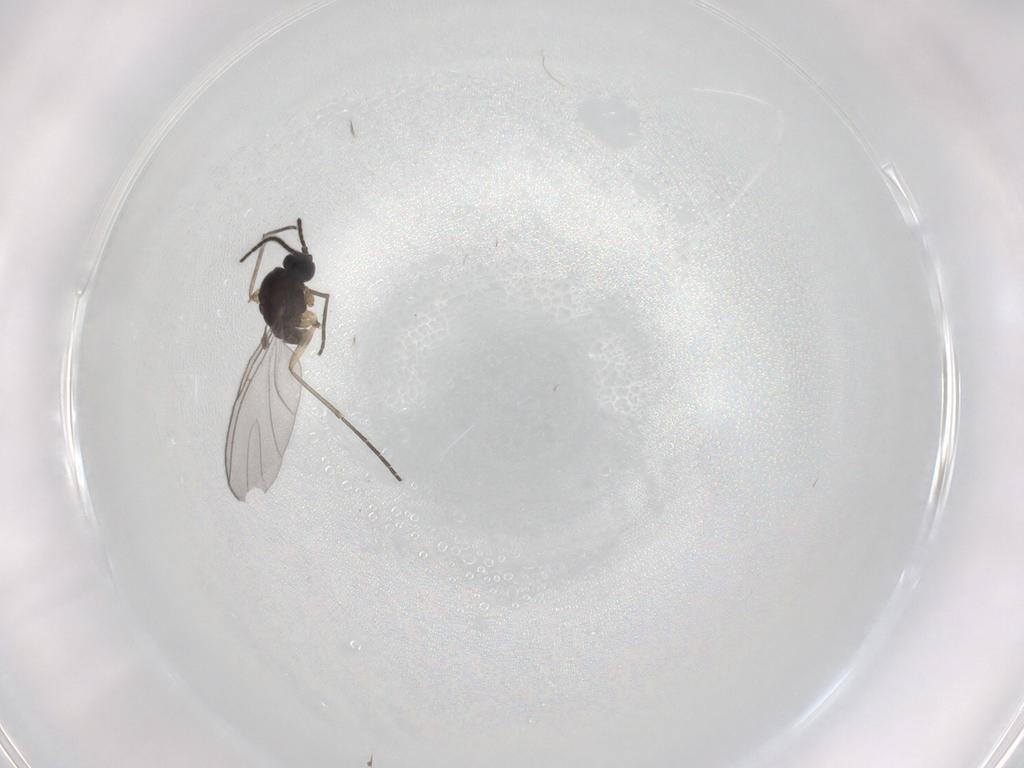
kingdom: Animalia
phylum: Arthropoda
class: Insecta
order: Diptera
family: Sciaridae
